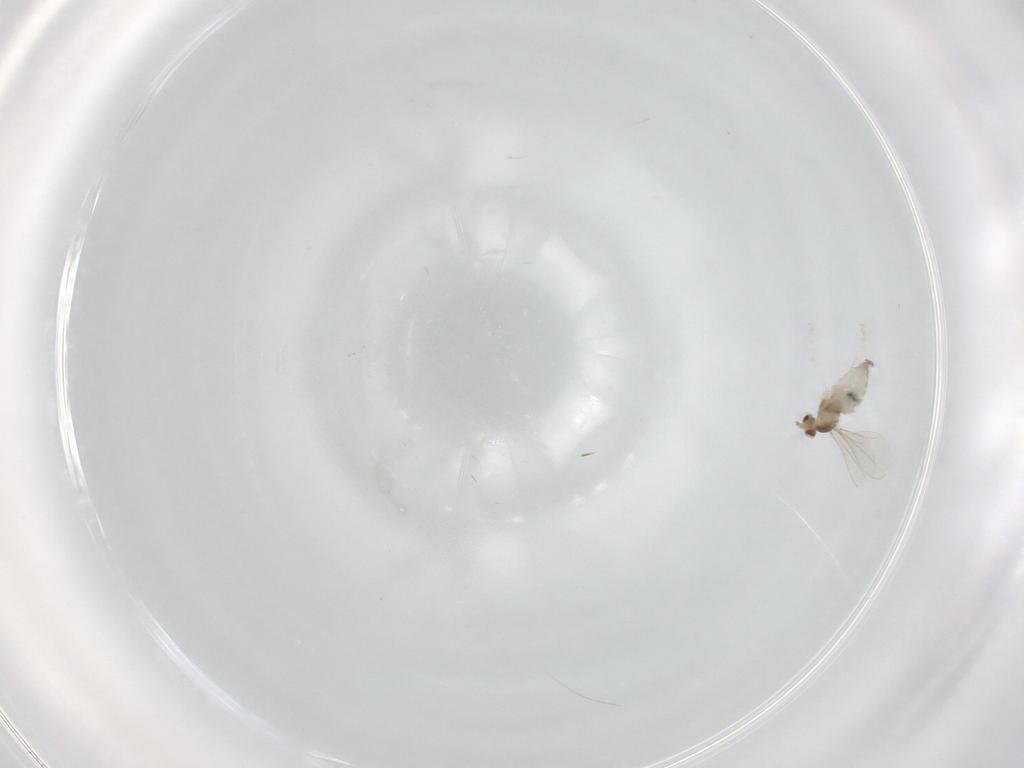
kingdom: Animalia
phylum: Arthropoda
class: Insecta
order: Diptera
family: Cecidomyiidae
